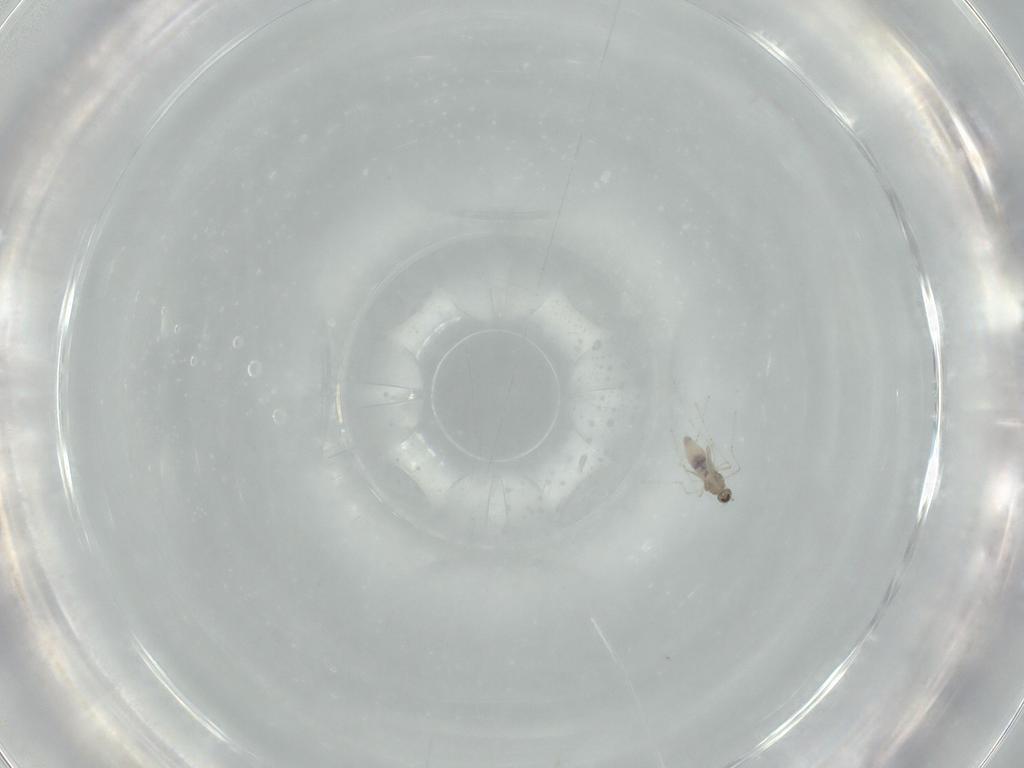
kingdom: Animalia
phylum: Arthropoda
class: Insecta
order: Diptera
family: Cecidomyiidae
